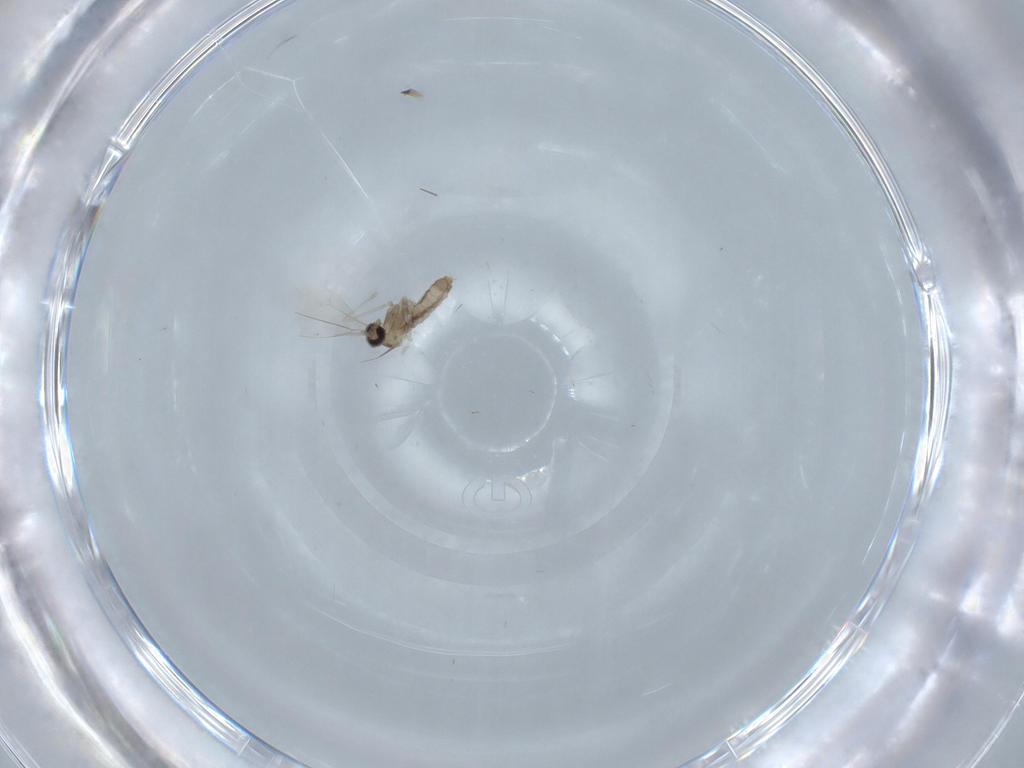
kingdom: Animalia
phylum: Arthropoda
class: Insecta
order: Diptera
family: Cecidomyiidae
